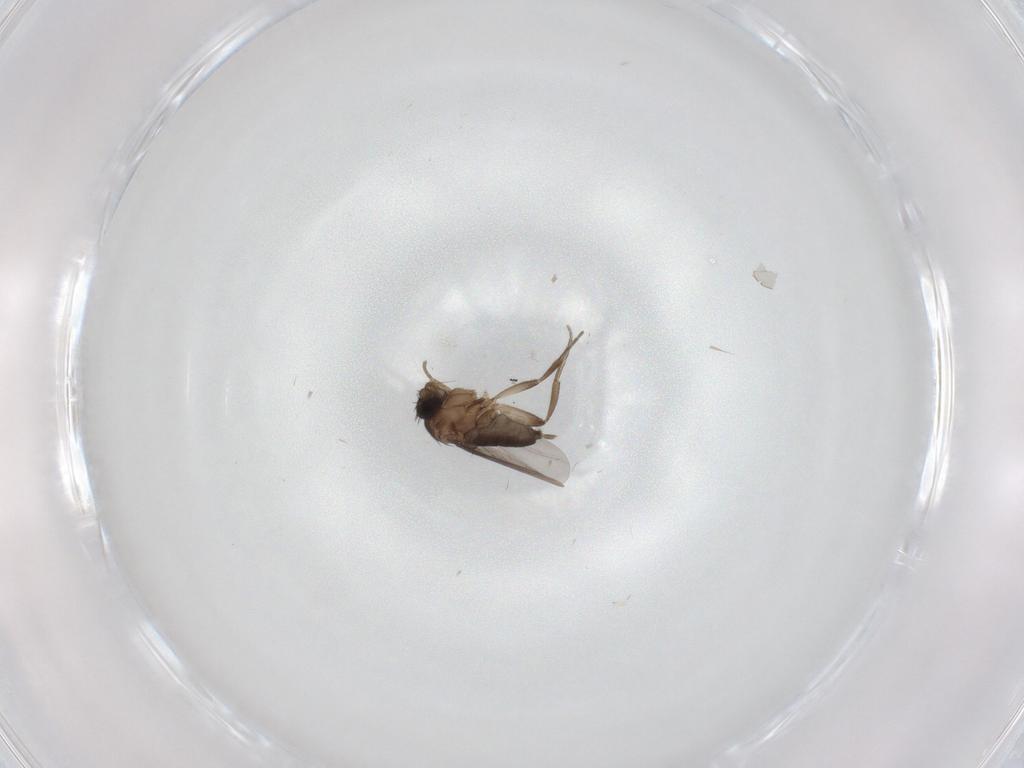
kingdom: Animalia
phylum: Arthropoda
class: Insecta
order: Diptera
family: Phoridae
